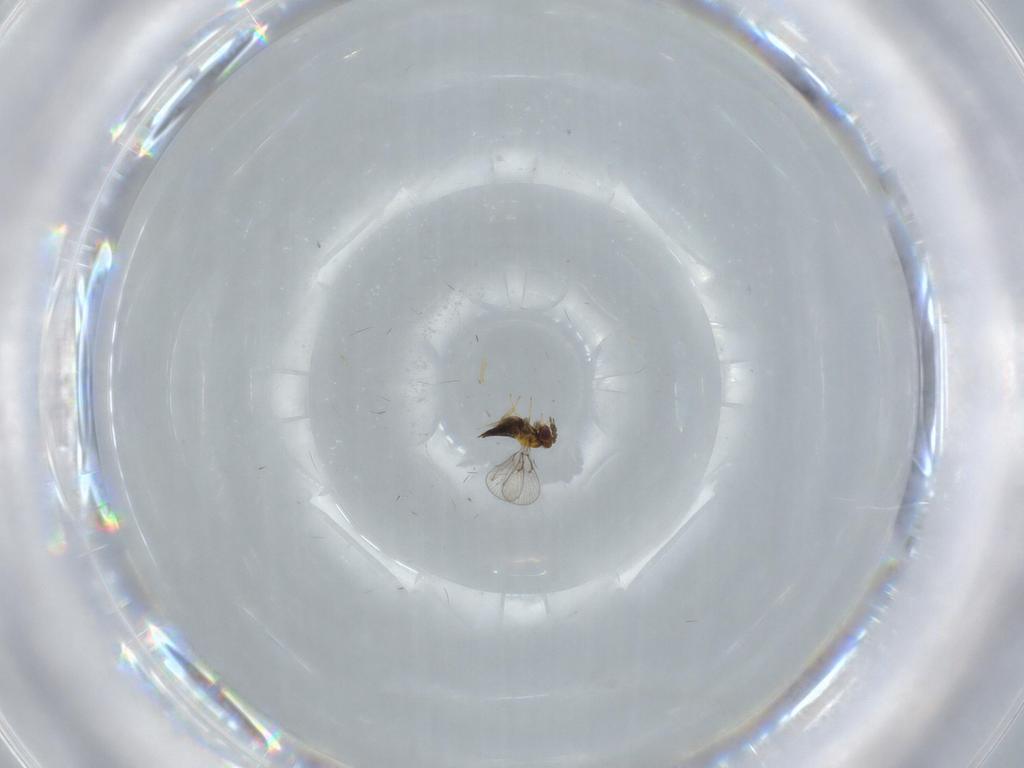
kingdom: Animalia
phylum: Arthropoda
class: Insecta
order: Hymenoptera
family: Trichogrammatidae
